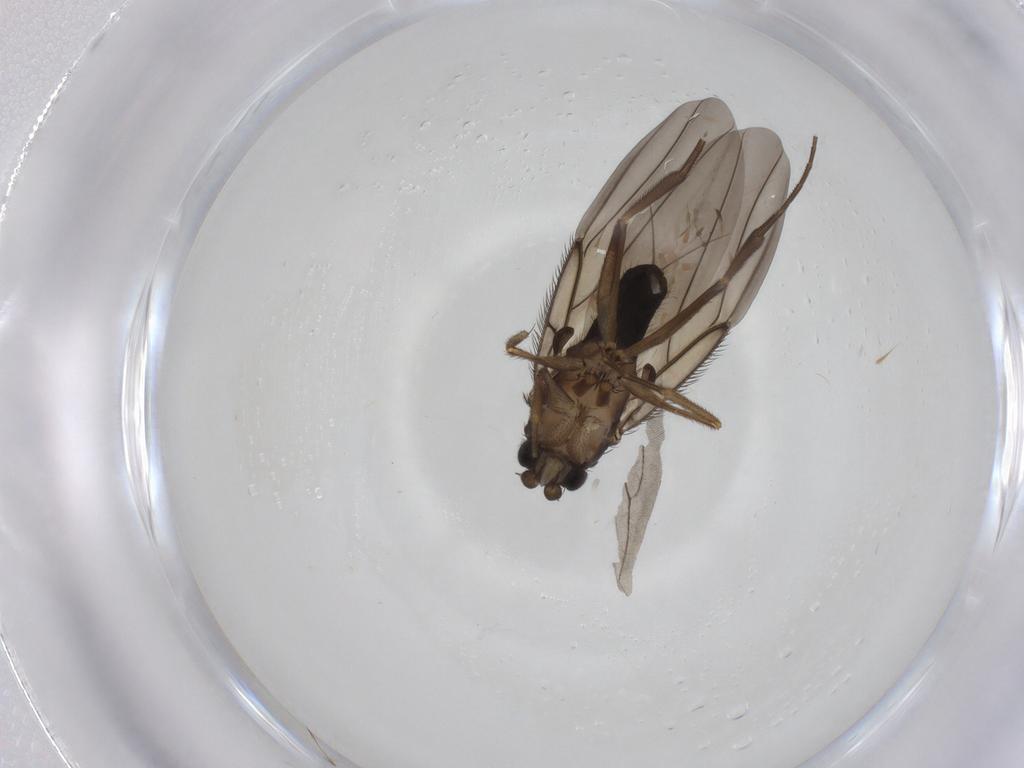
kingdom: Animalia
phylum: Arthropoda
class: Insecta
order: Diptera
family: Phoridae
